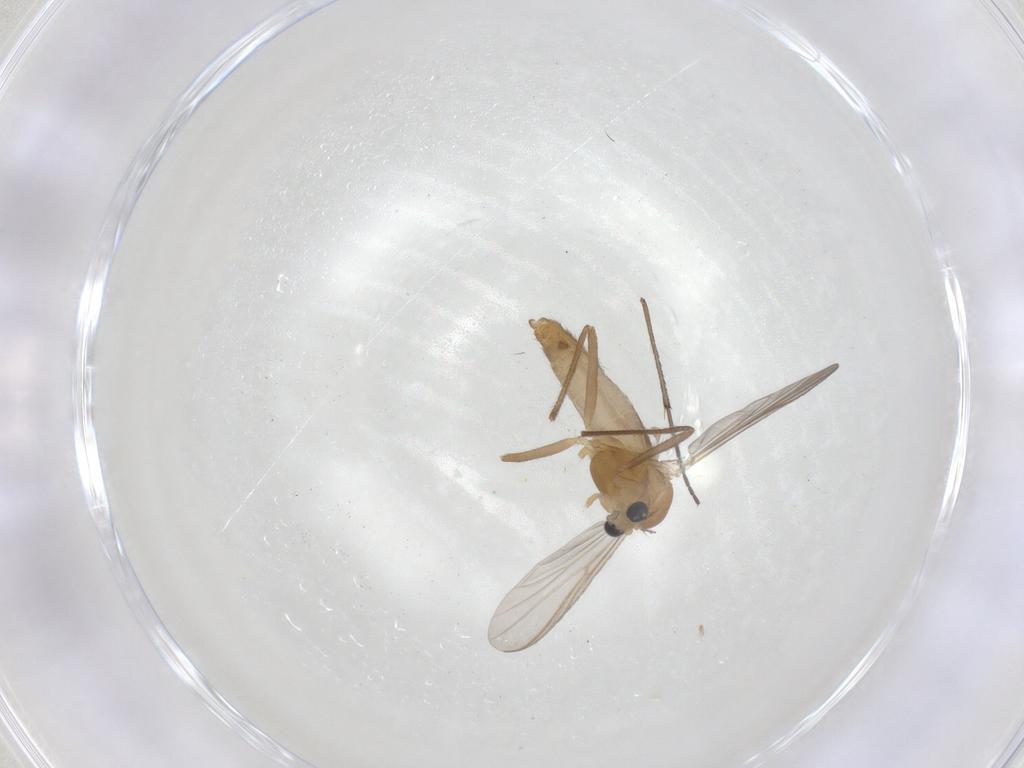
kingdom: Animalia
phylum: Arthropoda
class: Insecta
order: Diptera
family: Chironomidae
